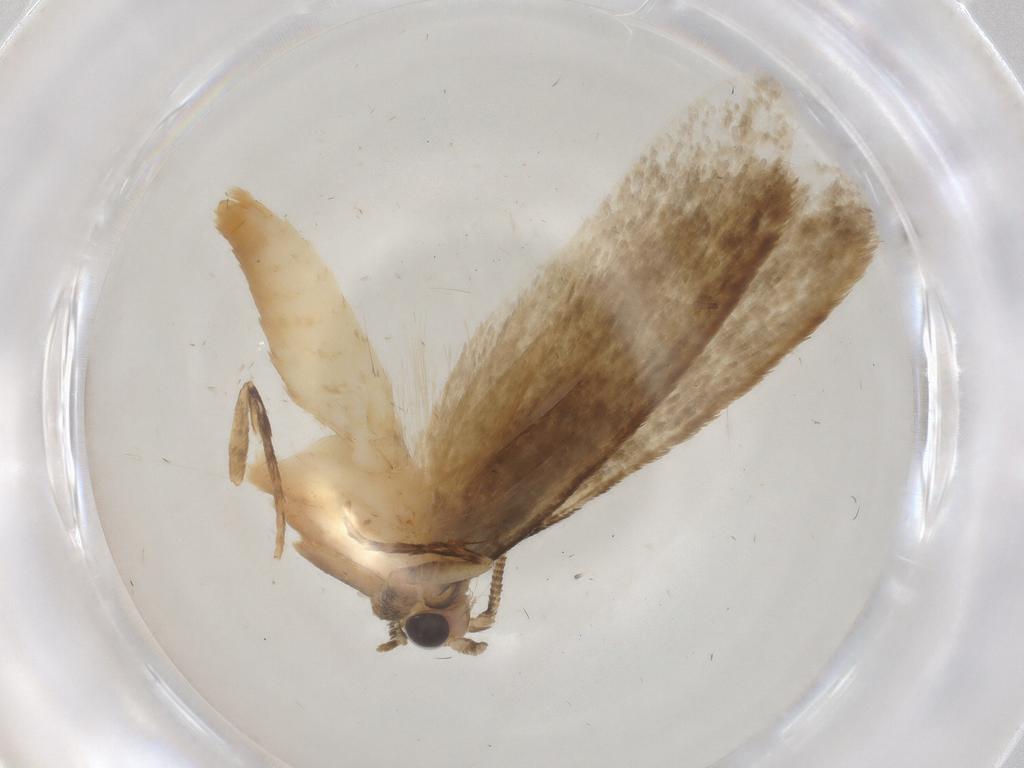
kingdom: Animalia
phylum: Arthropoda
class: Insecta
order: Lepidoptera
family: Tineidae
